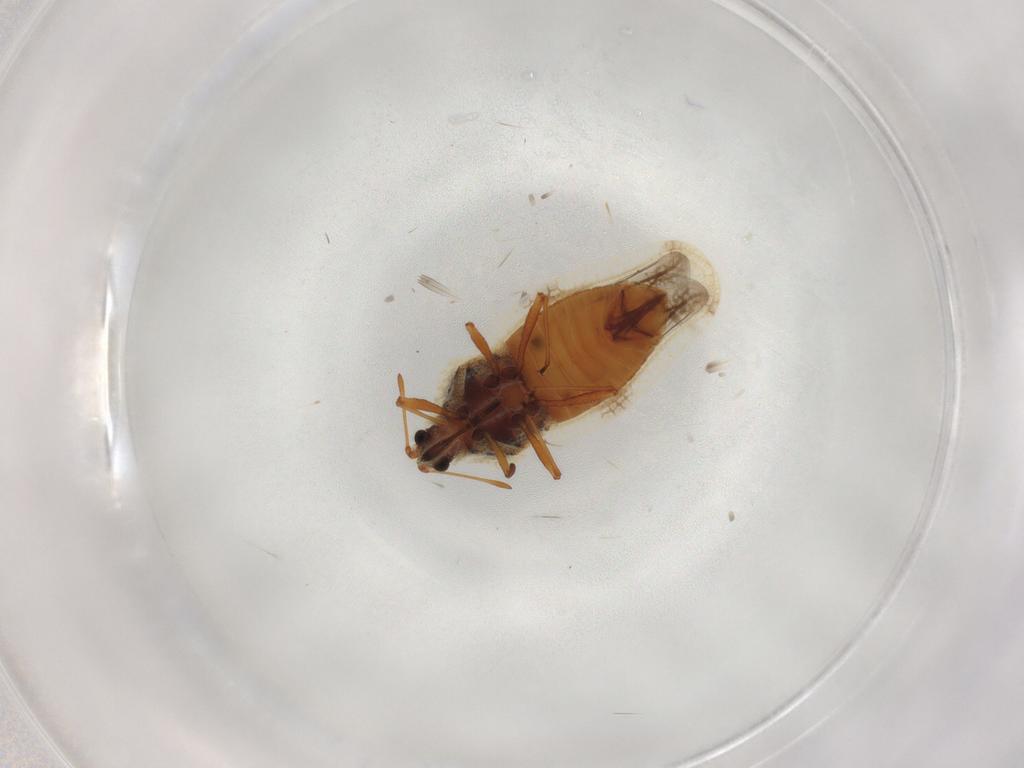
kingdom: Animalia
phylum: Arthropoda
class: Insecta
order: Hemiptera
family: Tingidae
